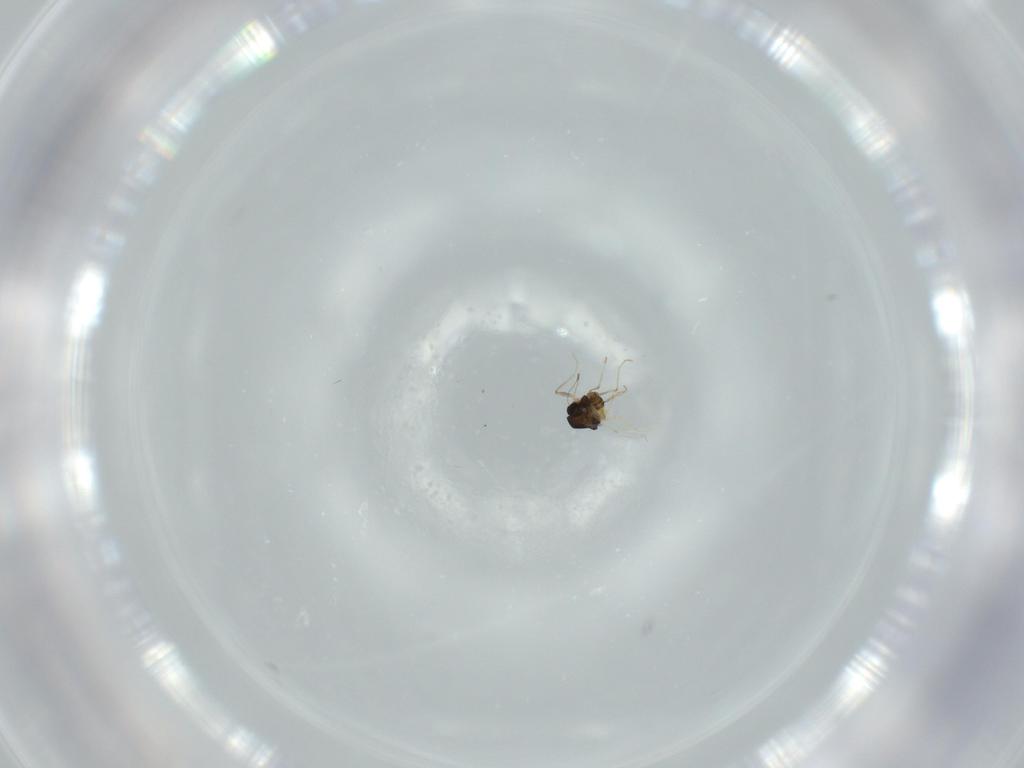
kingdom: Animalia
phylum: Arthropoda
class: Insecta
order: Diptera
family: Chironomidae
